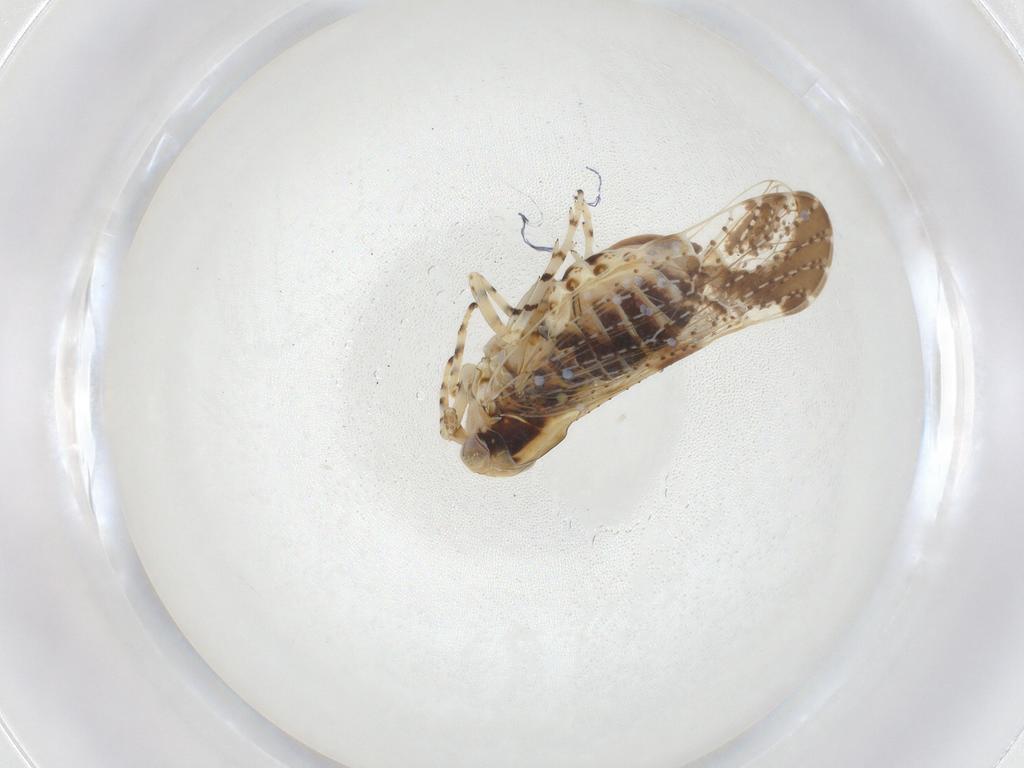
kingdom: Animalia
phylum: Arthropoda
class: Insecta
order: Hemiptera
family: Delphacidae
